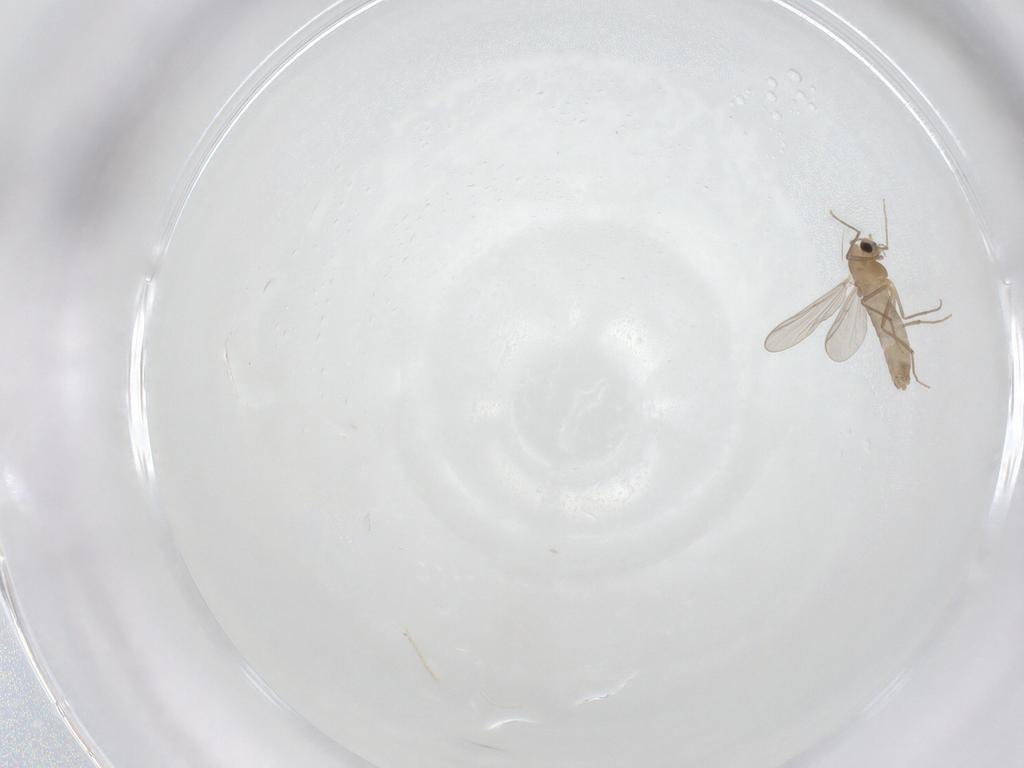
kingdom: Animalia
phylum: Arthropoda
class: Insecta
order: Diptera
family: Chironomidae
